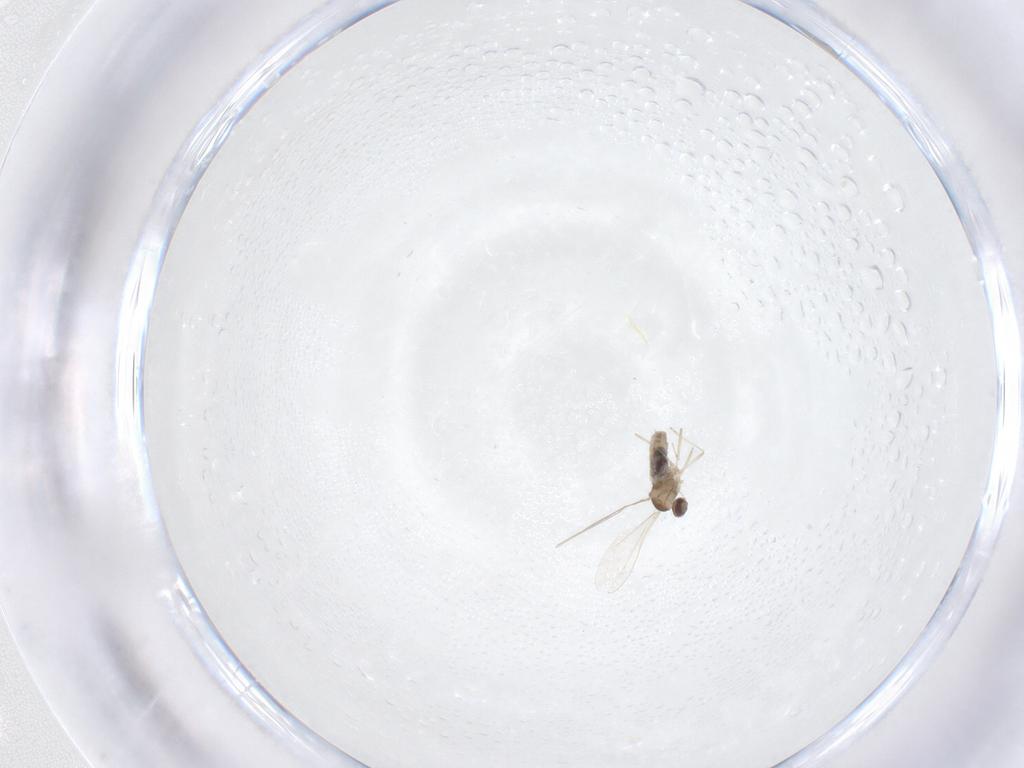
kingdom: Animalia
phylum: Arthropoda
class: Insecta
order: Diptera
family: Cecidomyiidae
